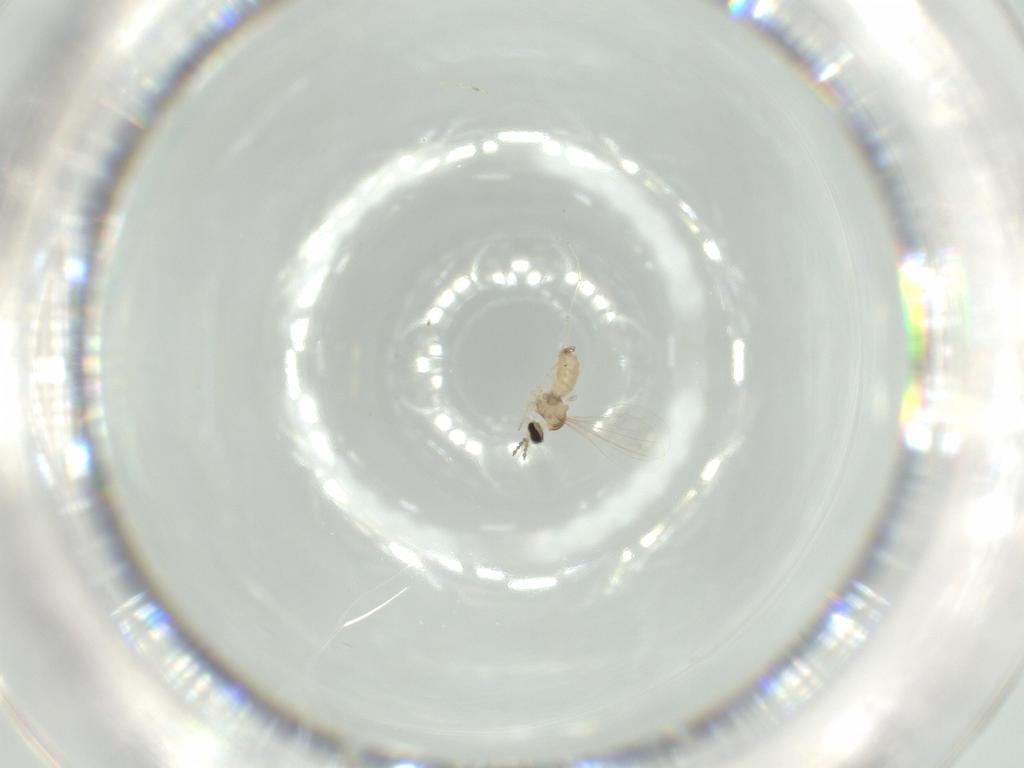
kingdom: Animalia
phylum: Arthropoda
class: Insecta
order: Diptera
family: Cecidomyiidae
